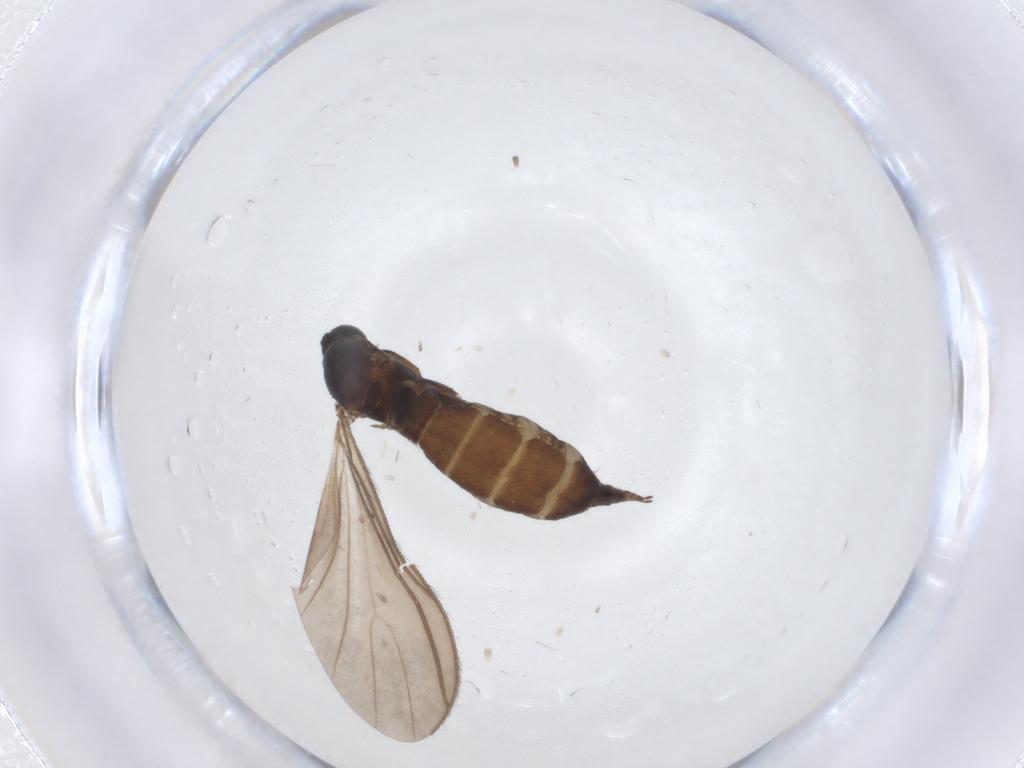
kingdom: Animalia
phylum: Arthropoda
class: Insecta
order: Diptera
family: Sciaridae
